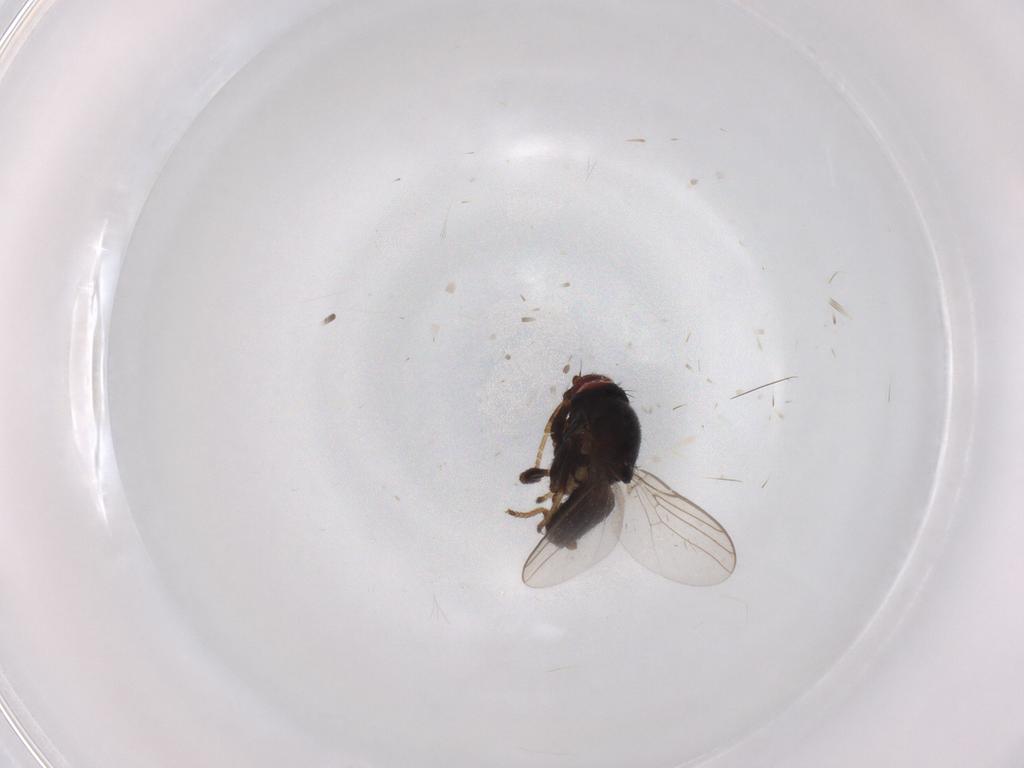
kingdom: Animalia
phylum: Arthropoda
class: Insecta
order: Diptera
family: Chloropidae
